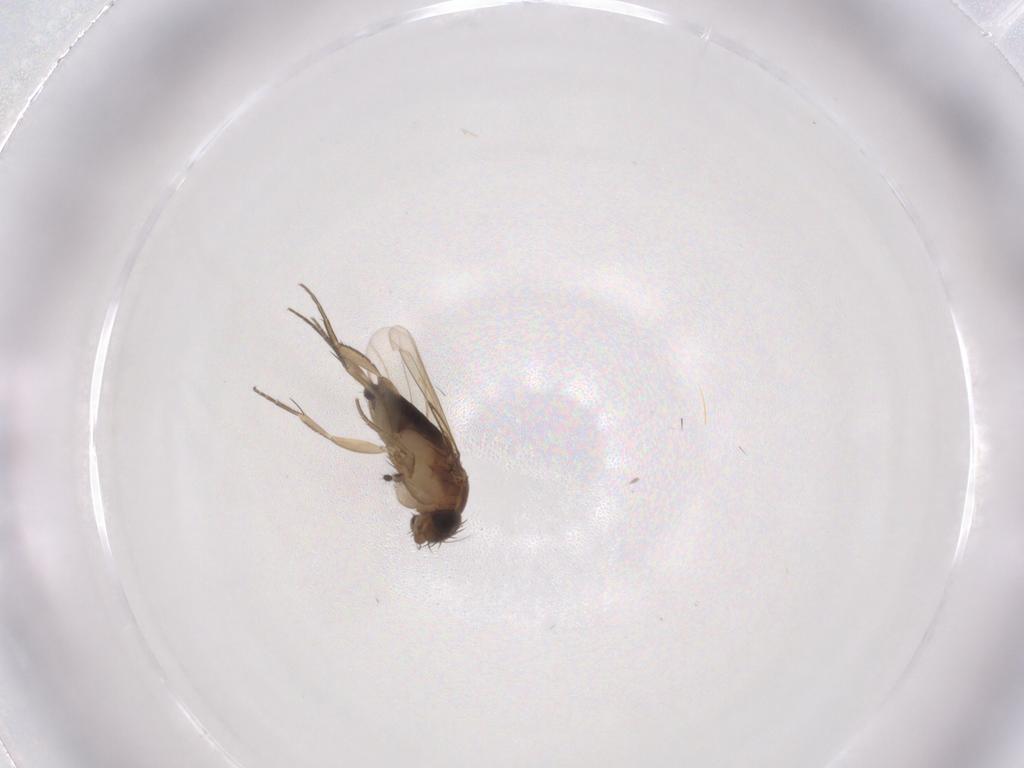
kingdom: Animalia
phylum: Arthropoda
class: Insecta
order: Diptera
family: Phoridae
